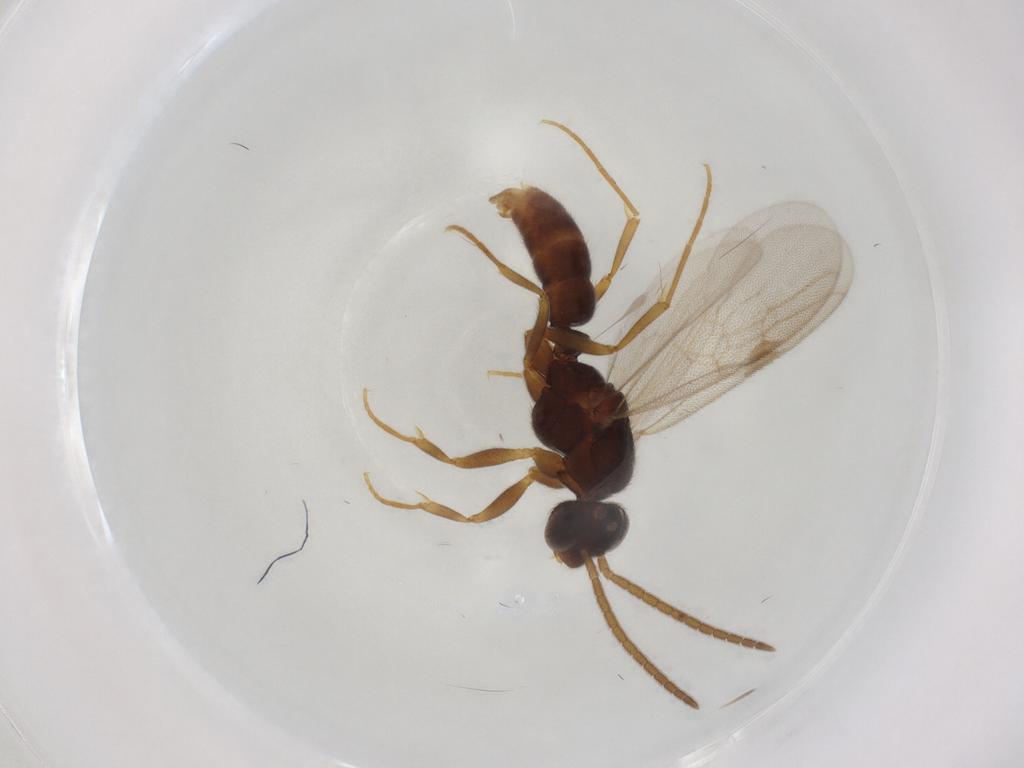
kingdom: Animalia
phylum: Arthropoda
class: Insecta
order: Hymenoptera
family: Formicidae
